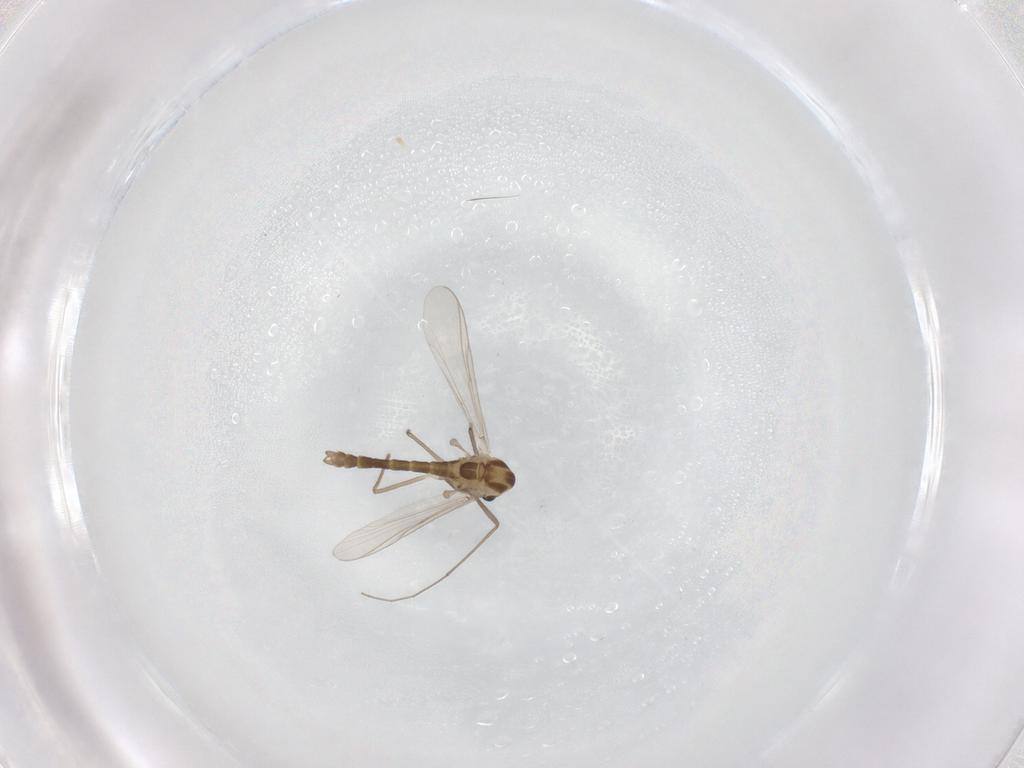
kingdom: Animalia
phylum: Arthropoda
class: Insecta
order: Diptera
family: Chironomidae
